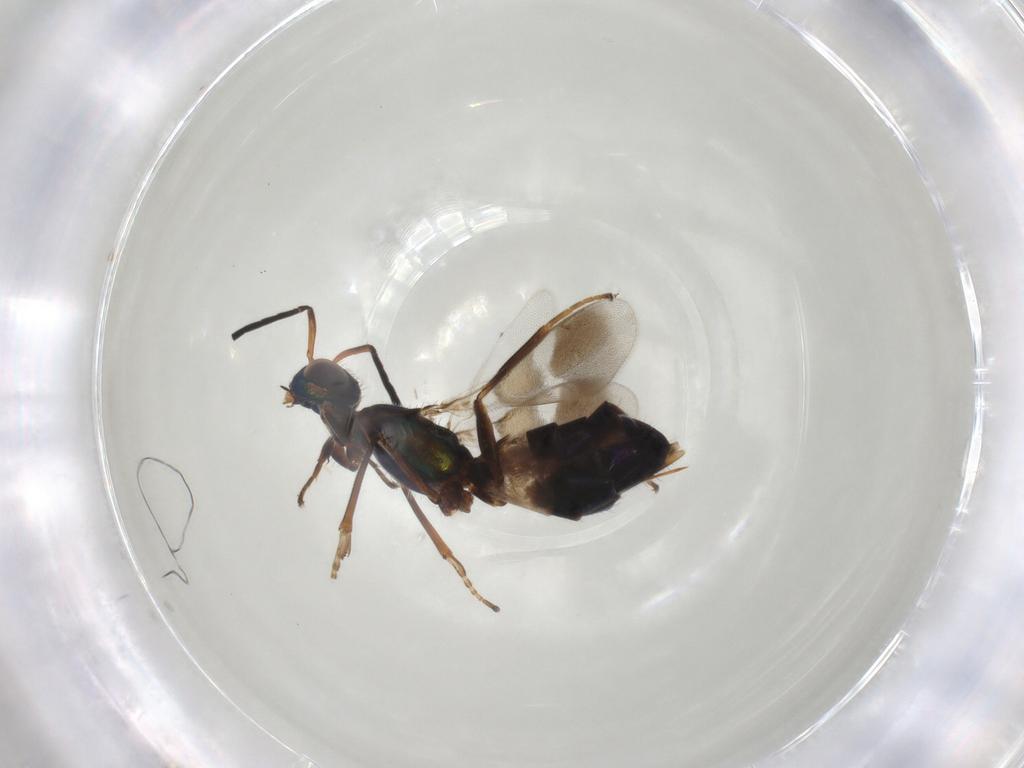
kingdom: Animalia
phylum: Arthropoda
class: Insecta
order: Hymenoptera
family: Eupelmidae
